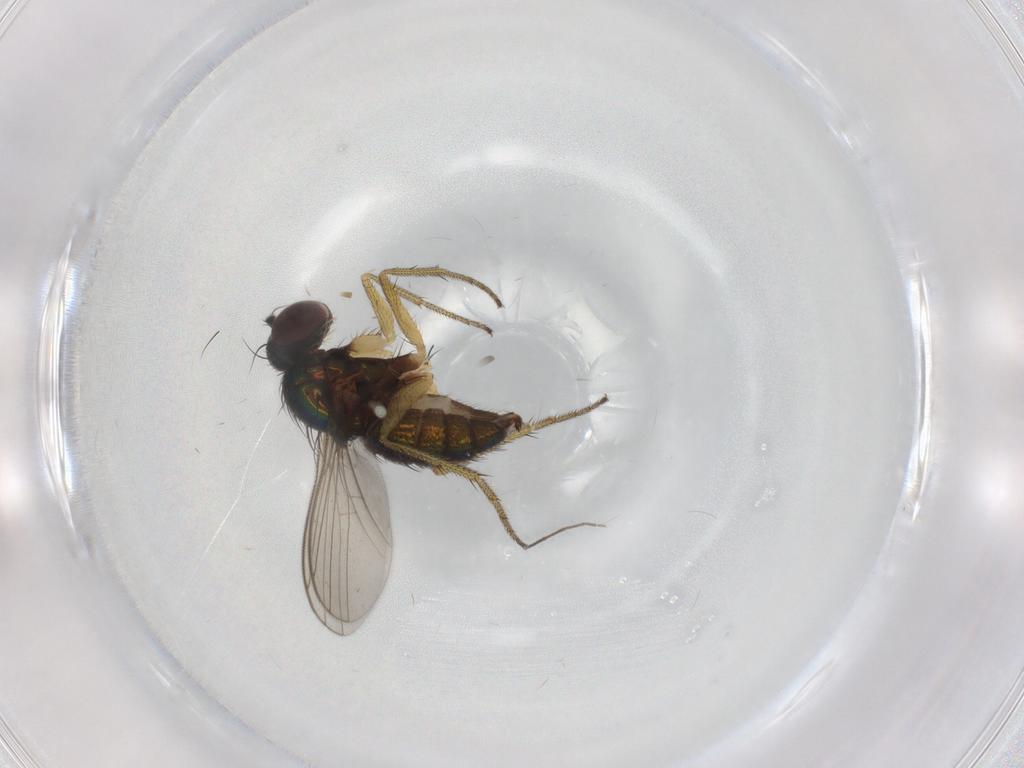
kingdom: Animalia
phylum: Arthropoda
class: Insecta
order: Diptera
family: Chironomidae
